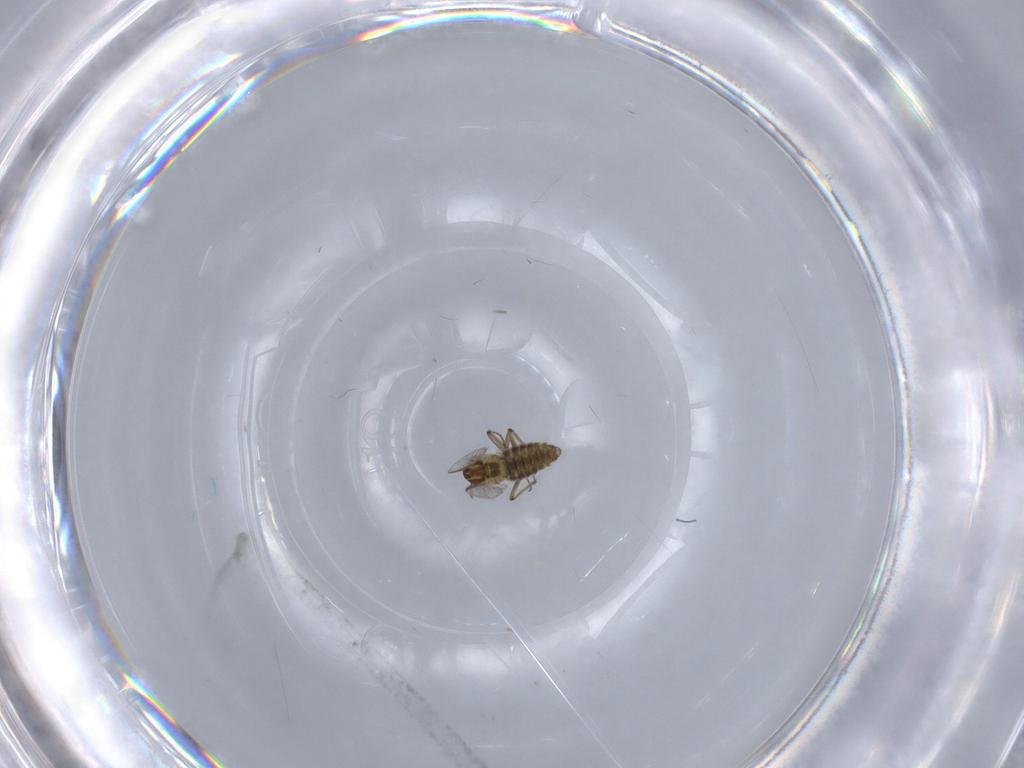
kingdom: Animalia
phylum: Arthropoda
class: Insecta
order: Diptera
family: Chironomidae
